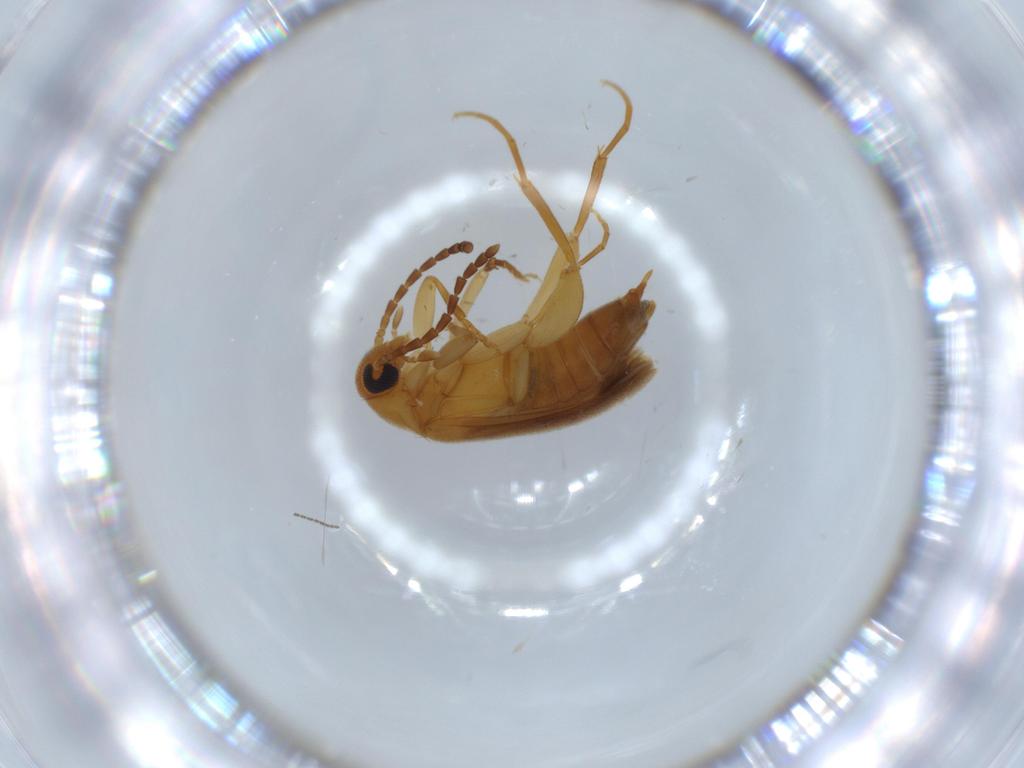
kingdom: Animalia
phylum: Arthropoda
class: Insecta
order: Coleoptera
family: Scraptiidae
